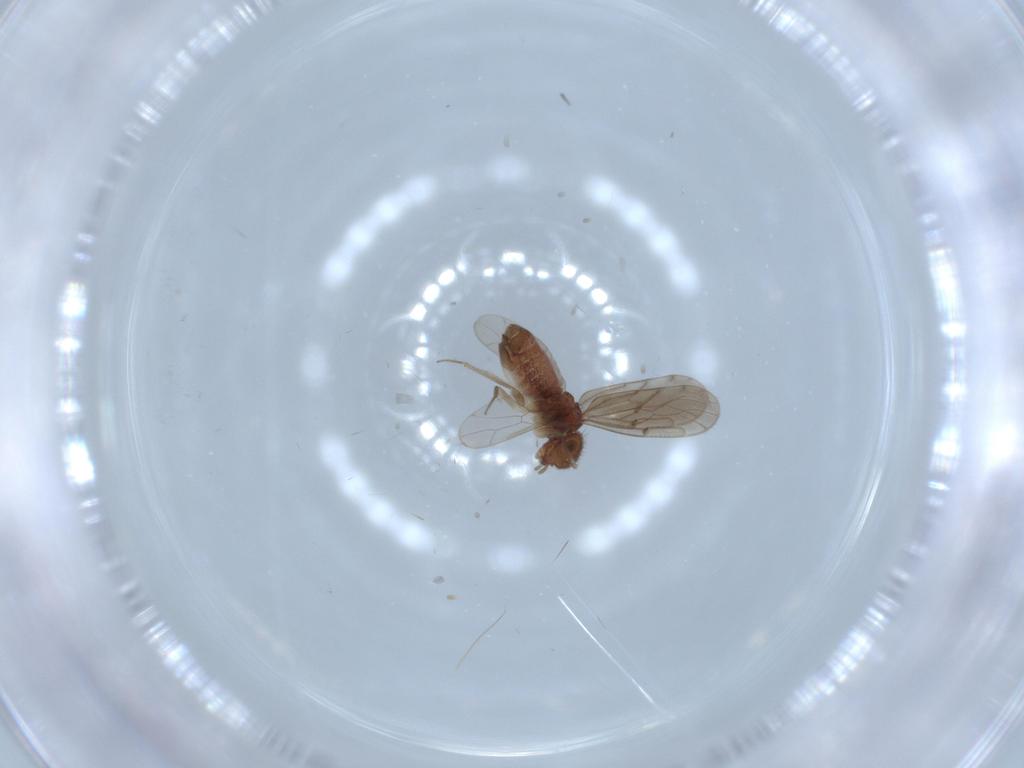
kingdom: Animalia
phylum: Arthropoda
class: Insecta
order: Psocodea
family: Ectopsocidae
